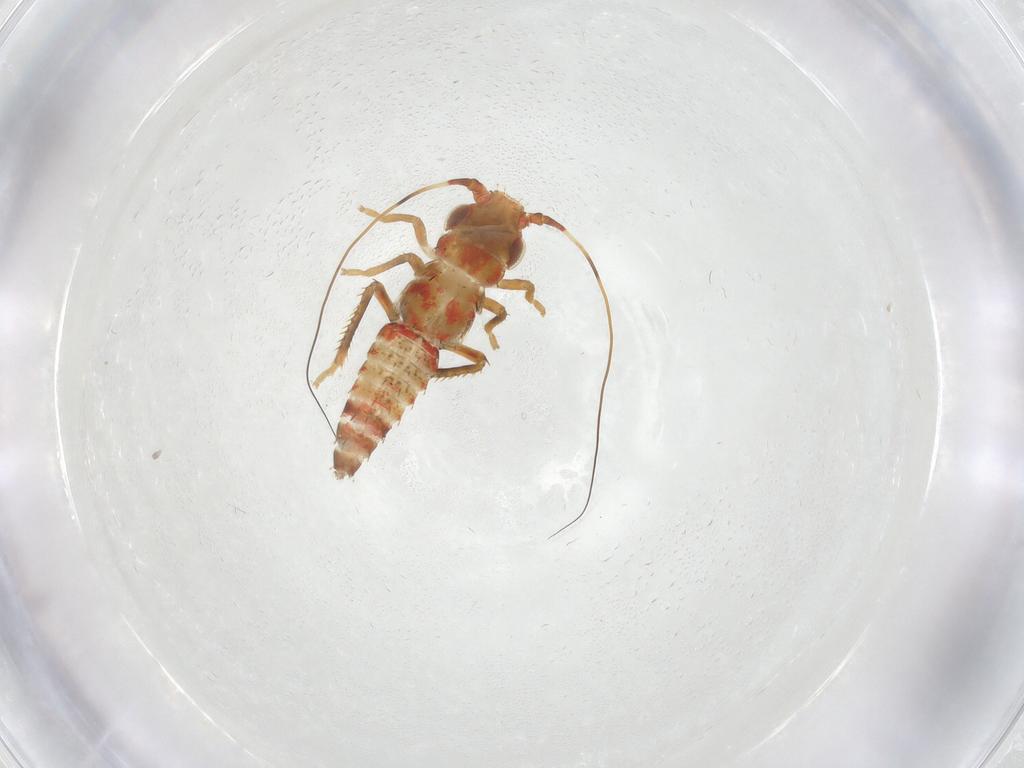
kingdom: Animalia
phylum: Arthropoda
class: Insecta
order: Hemiptera
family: Cicadellidae
